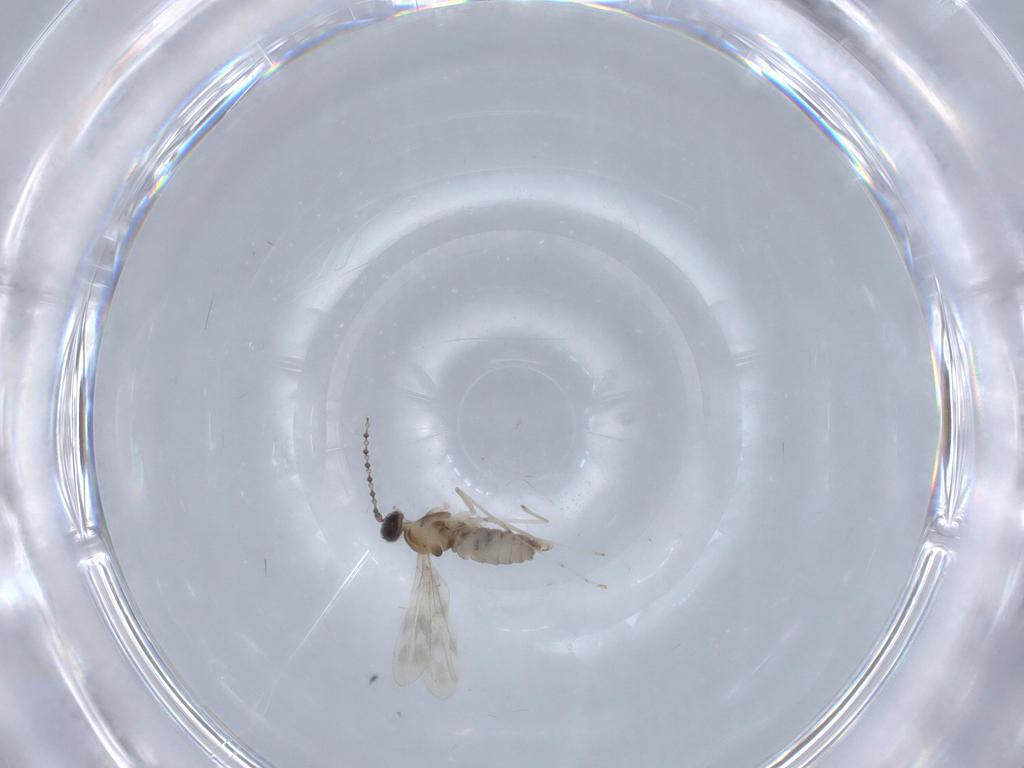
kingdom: Animalia
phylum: Arthropoda
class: Insecta
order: Diptera
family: Cecidomyiidae
